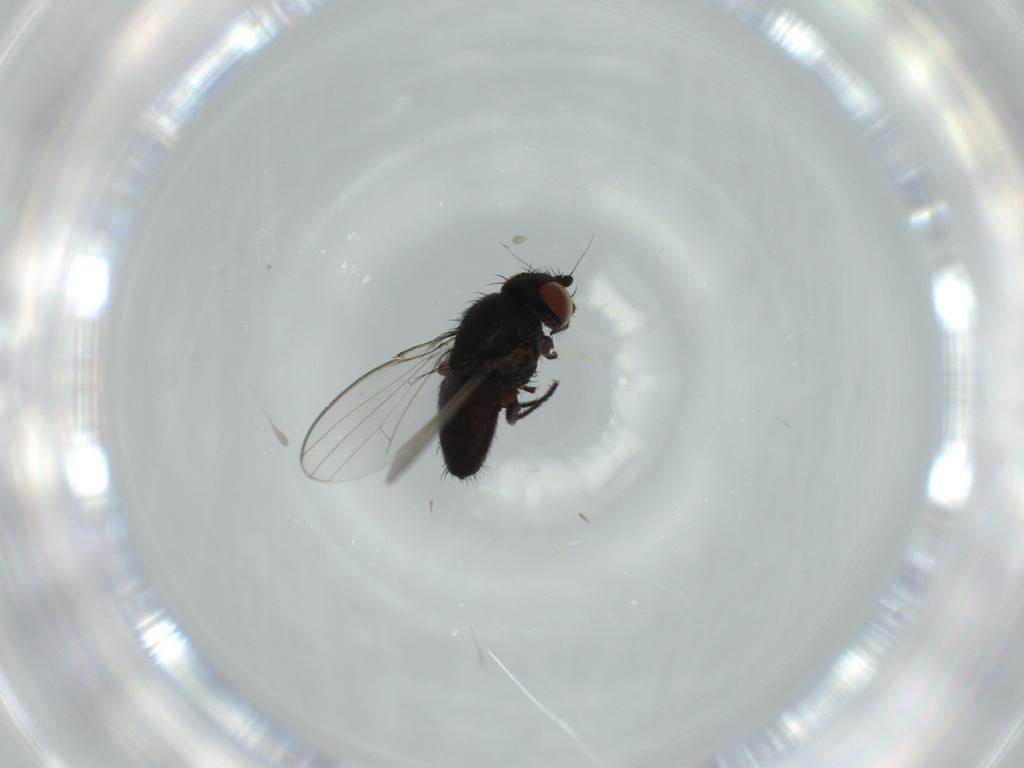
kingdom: Animalia
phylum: Arthropoda
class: Insecta
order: Diptera
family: Milichiidae
